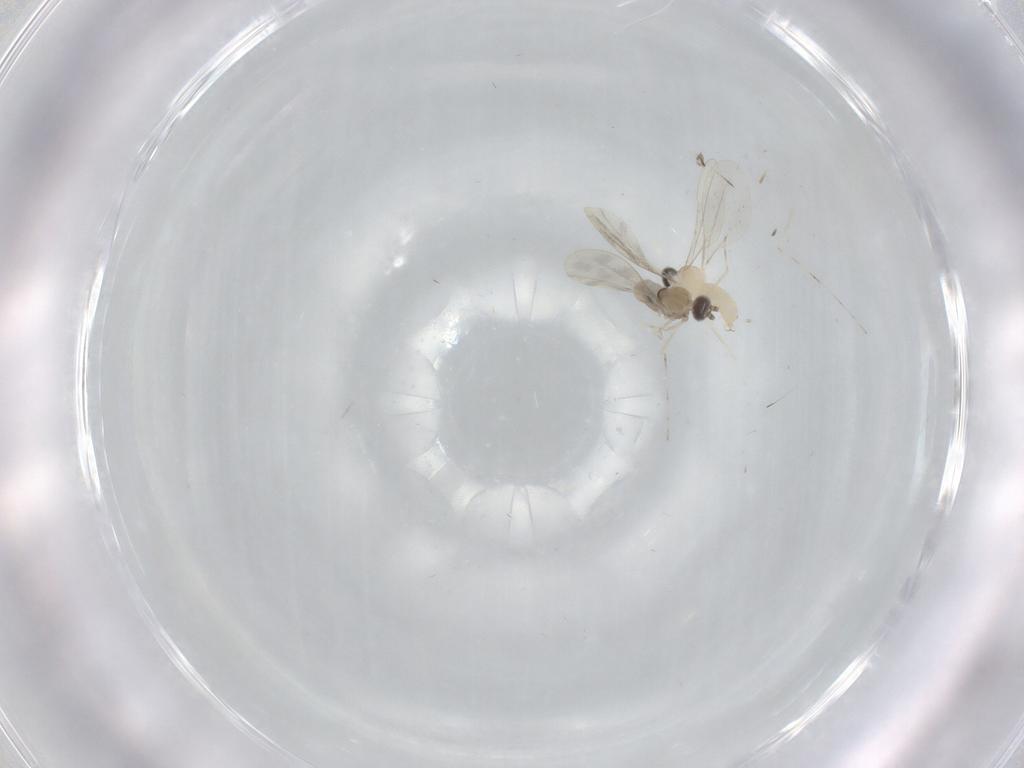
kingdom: Animalia
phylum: Arthropoda
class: Insecta
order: Diptera
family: Cecidomyiidae
